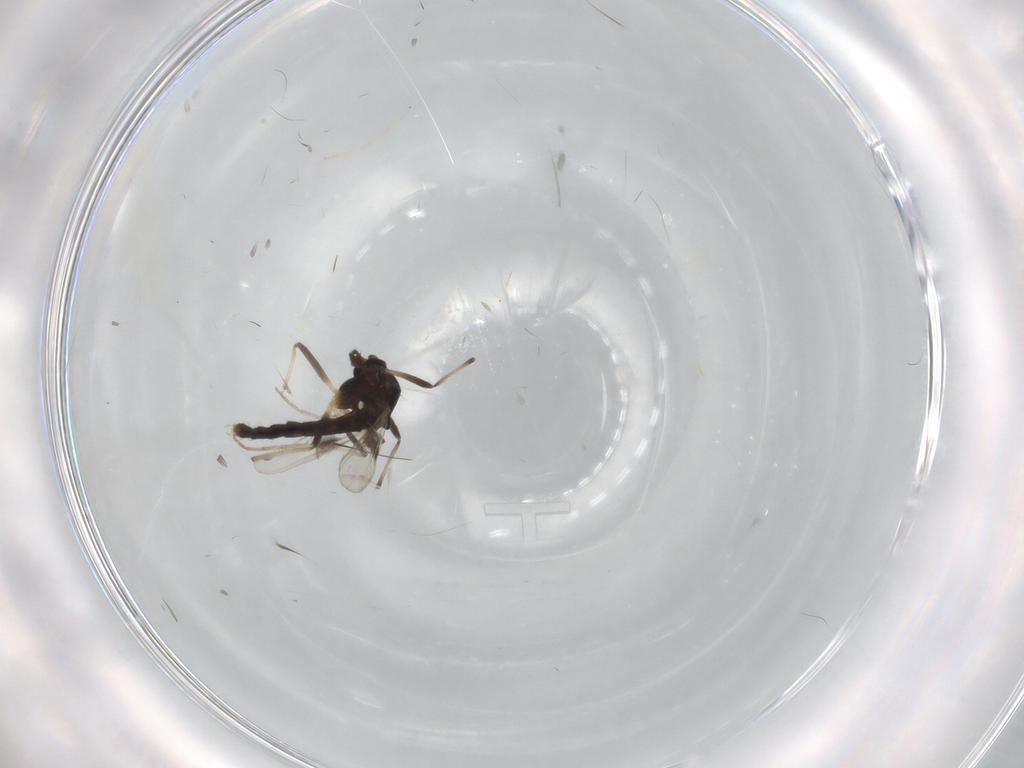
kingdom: Animalia
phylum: Arthropoda
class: Insecta
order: Diptera
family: Chironomidae
